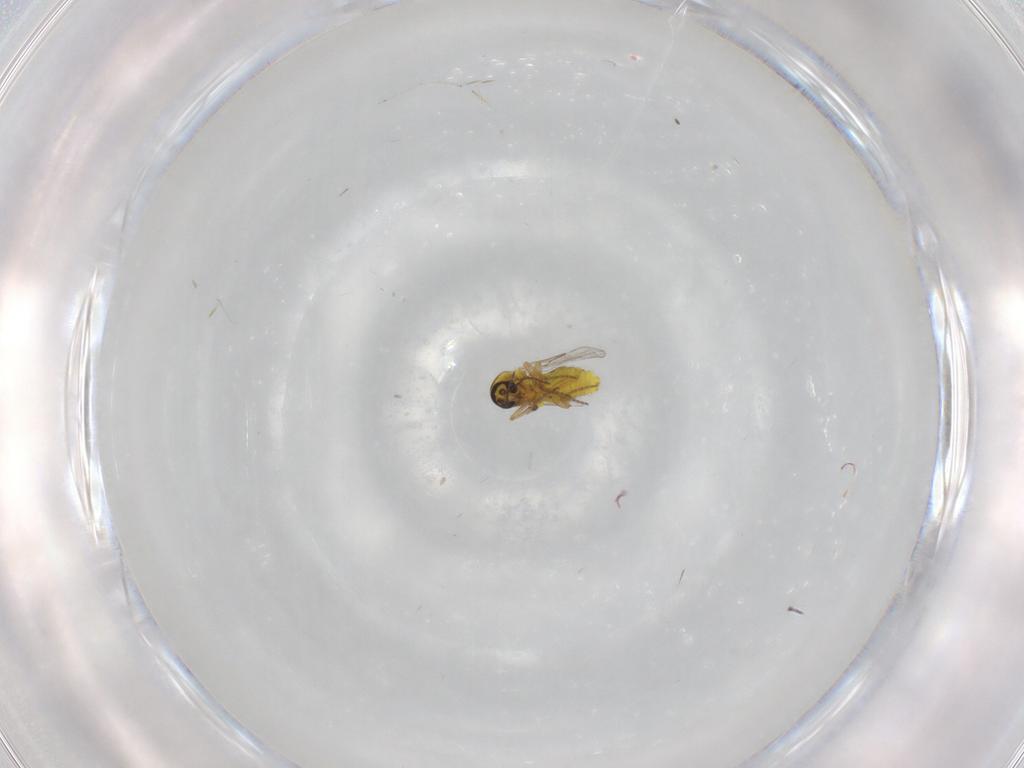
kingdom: Animalia
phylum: Arthropoda
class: Insecta
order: Diptera
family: Cecidomyiidae
